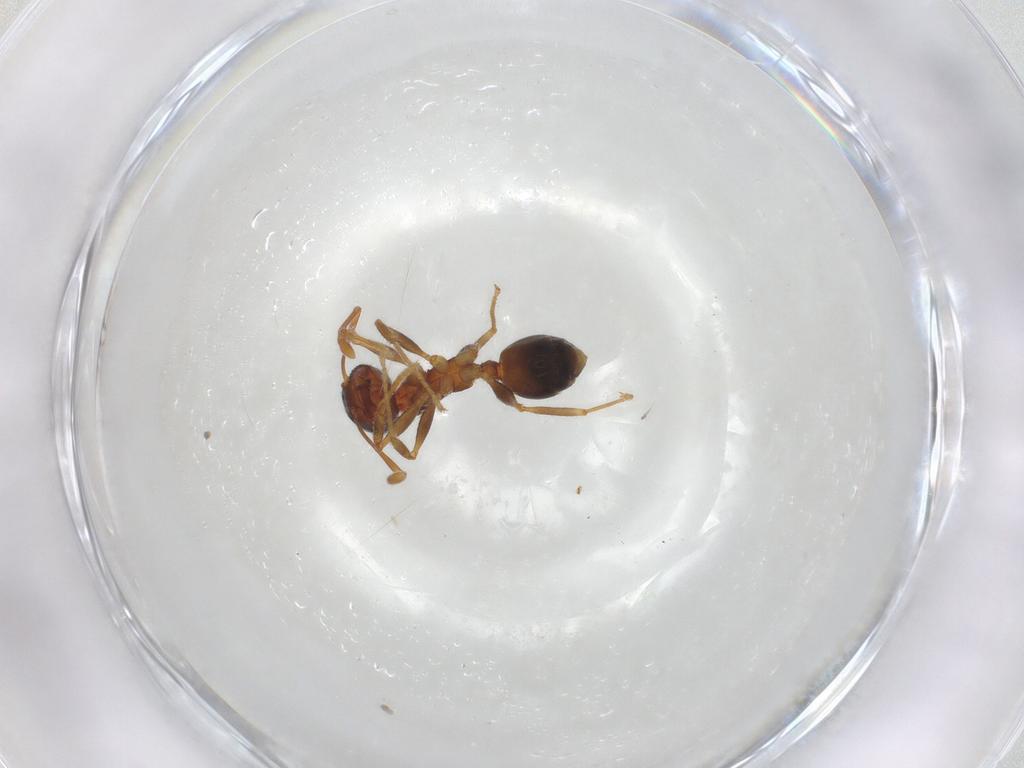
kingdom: Animalia
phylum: Arthropoda
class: Insecta
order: Hymenoptera
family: Formicidae
